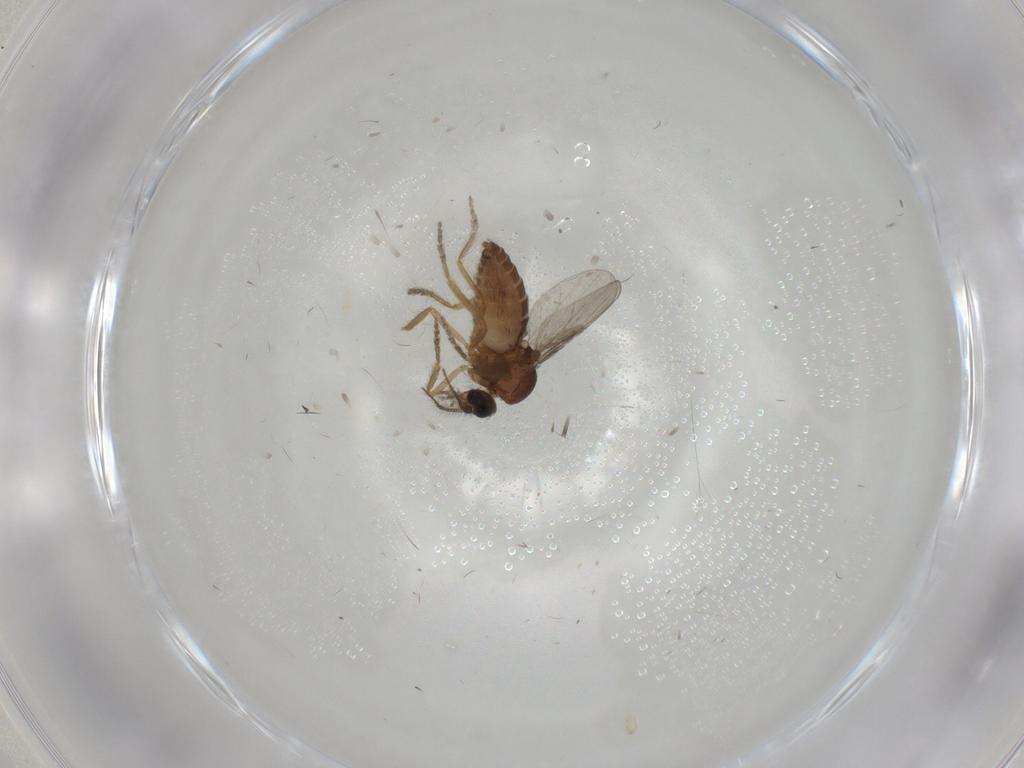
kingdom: Animalia
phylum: Arthropoda
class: Insecta
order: Diptera
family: Ceratopogonidae
